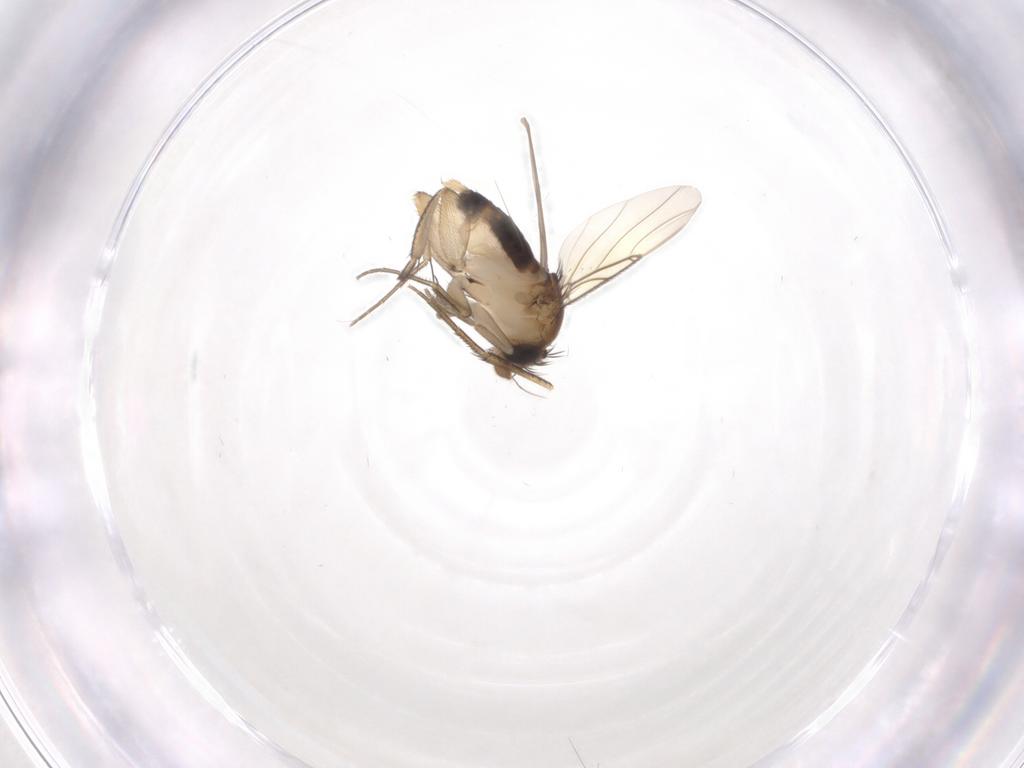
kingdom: Animalia
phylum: Arthropoda
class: Insecta
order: Diptera
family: Phoridae
